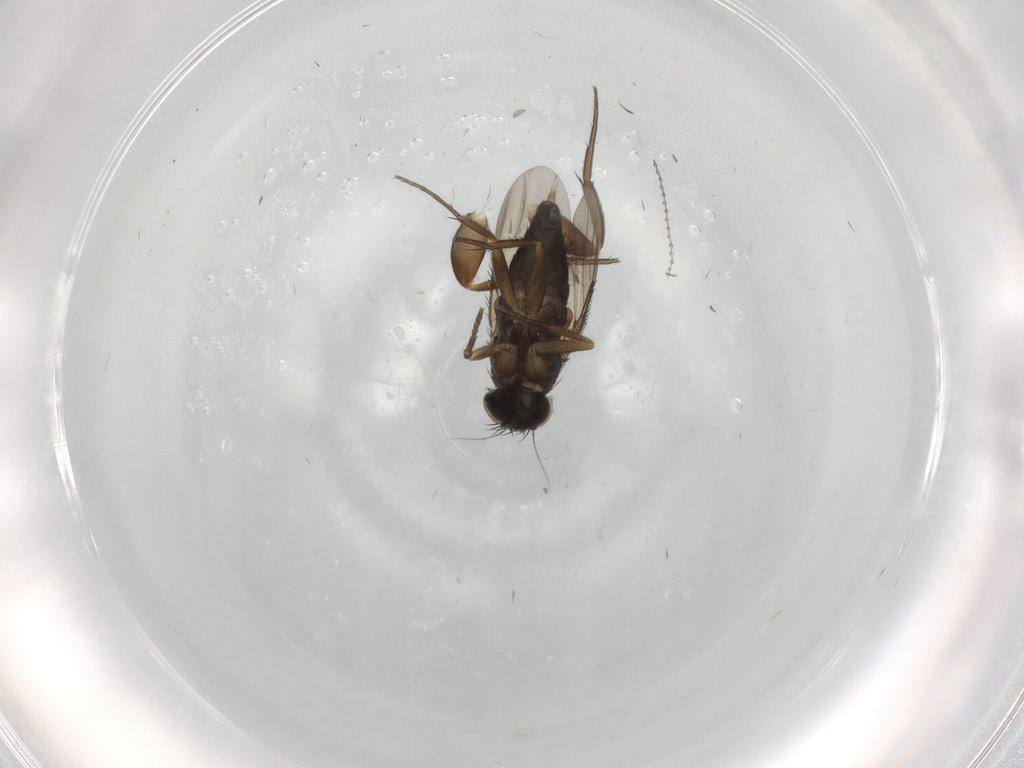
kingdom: Animalia
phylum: Arthropoda
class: Insecta
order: Diptera
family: Phoridae
